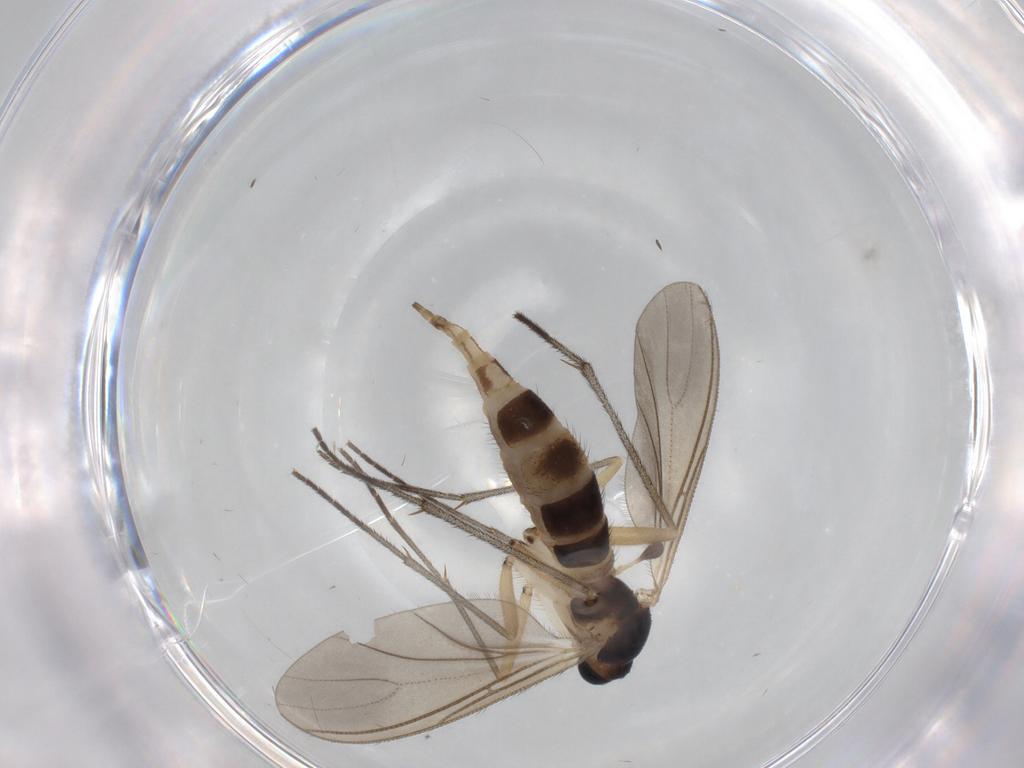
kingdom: Animalia
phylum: Arthropoda
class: Insecta
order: Diptera
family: Sciaridae
